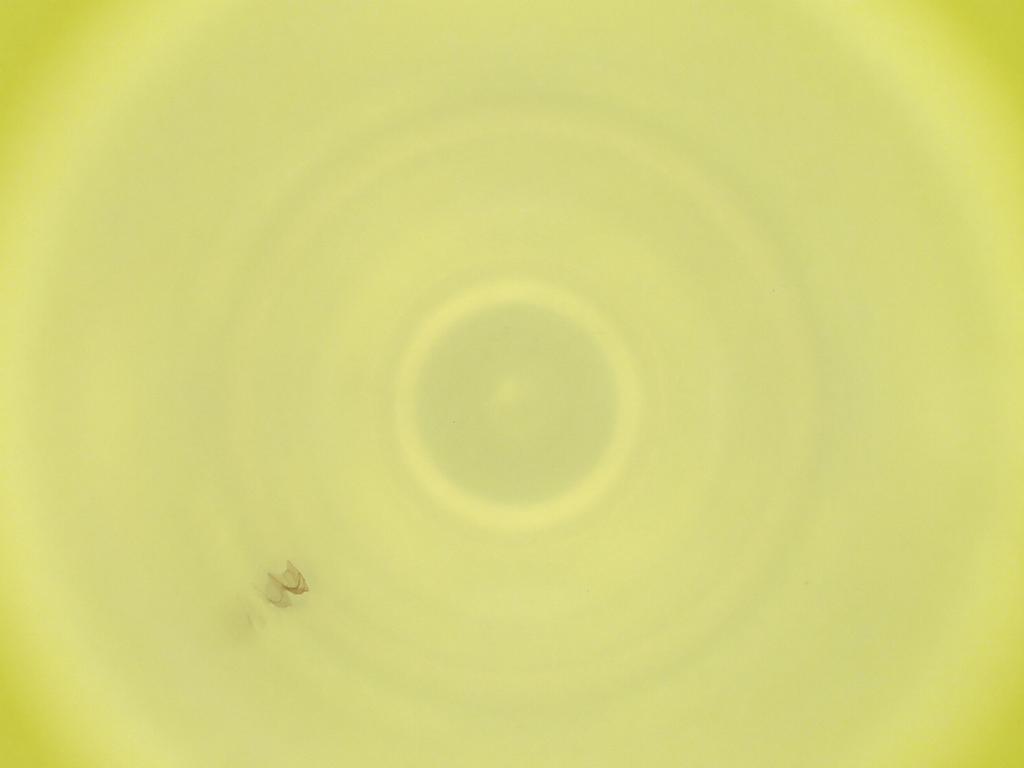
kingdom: Animalia
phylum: Arthropoda
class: Insecta
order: Diptera
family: Cecidomyiidae
